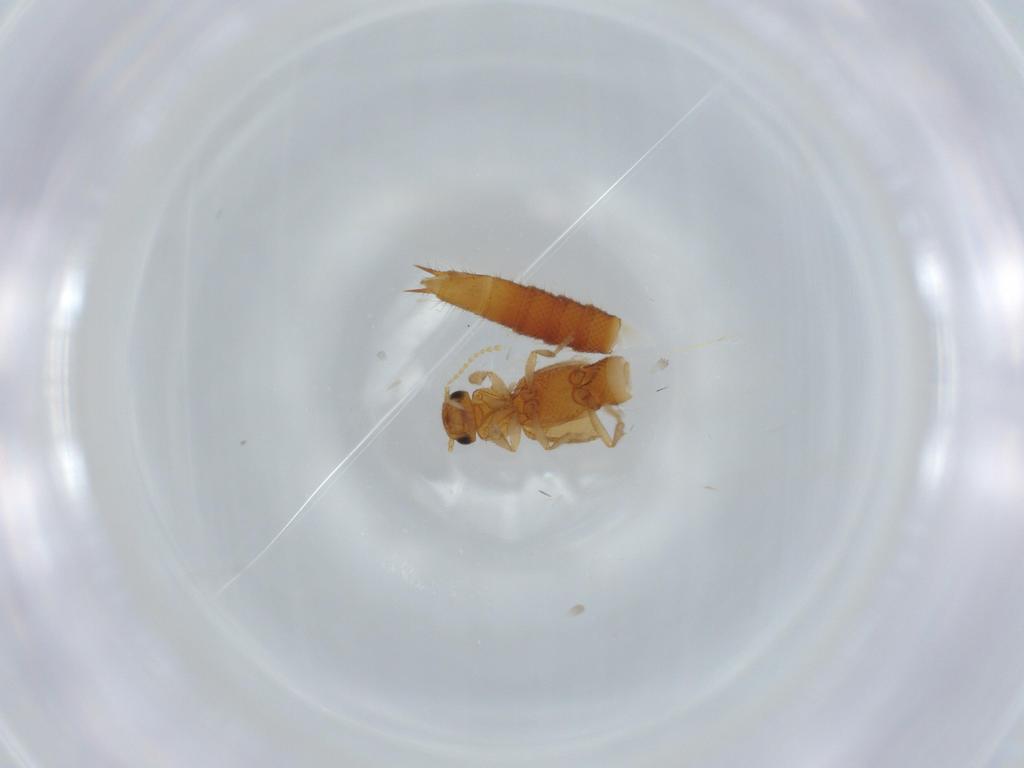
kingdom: Animalia
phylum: Arthropoda
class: Insecta
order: Coleoptera
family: Staphylinidae
